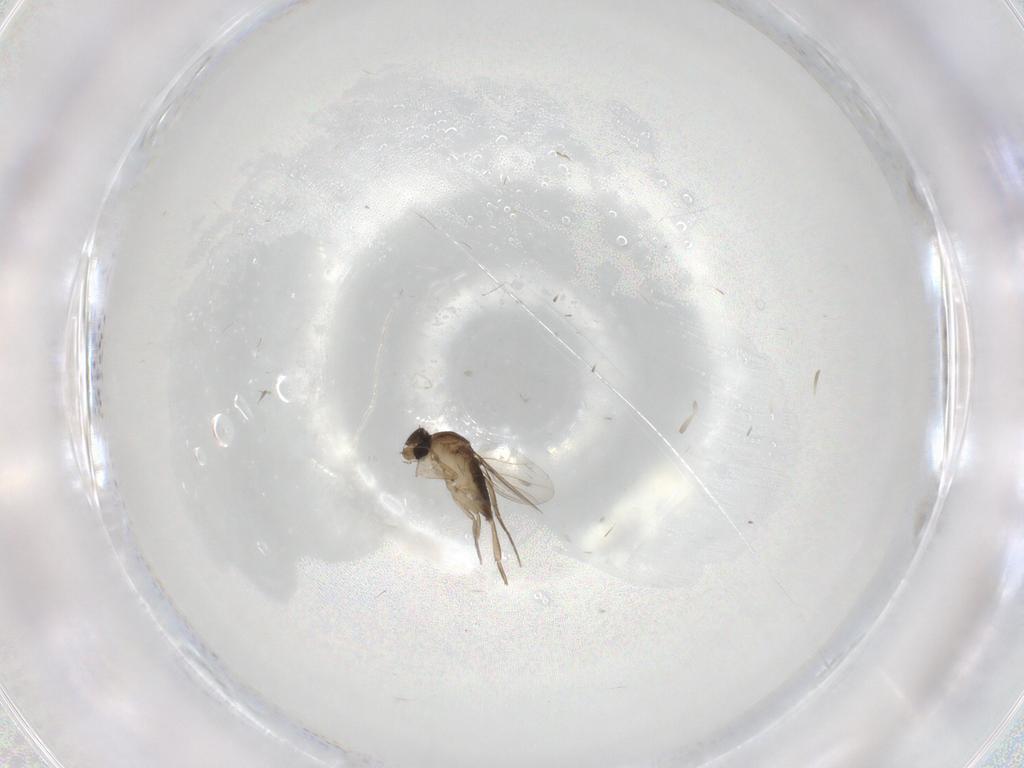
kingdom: Animalia
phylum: Arthropoda
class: Insecta
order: Diptera
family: Phoridae
